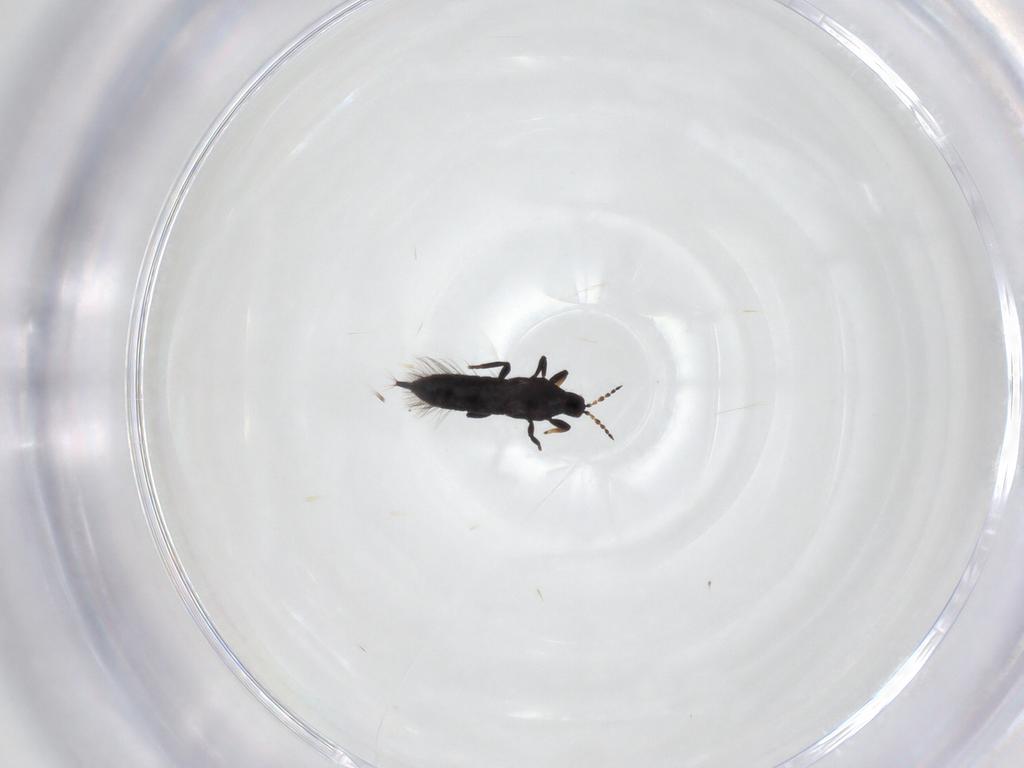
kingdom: Animalia
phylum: Arthropoda
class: Insecta
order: Thysanoptera
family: Phlaeothripidae
